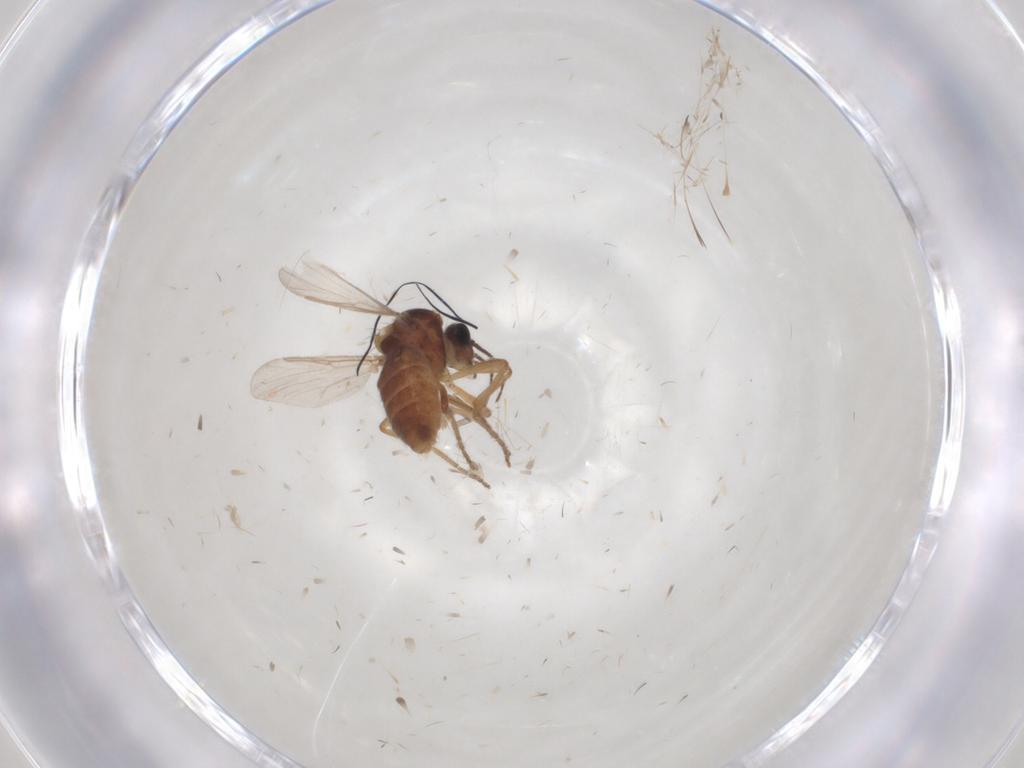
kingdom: Animalia
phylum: Arthropoda
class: Insecta
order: Diptera
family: Ceratopogonidae
